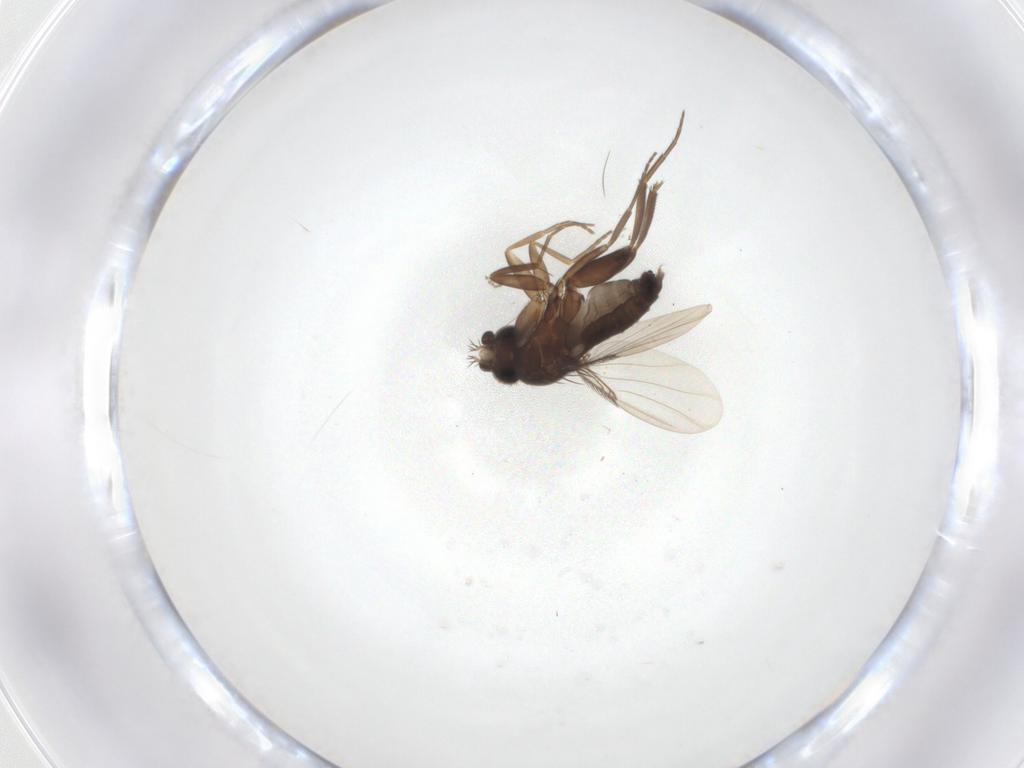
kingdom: Animalia
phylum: Arthropoda
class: Insecta
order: Diptera
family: Phoridae
